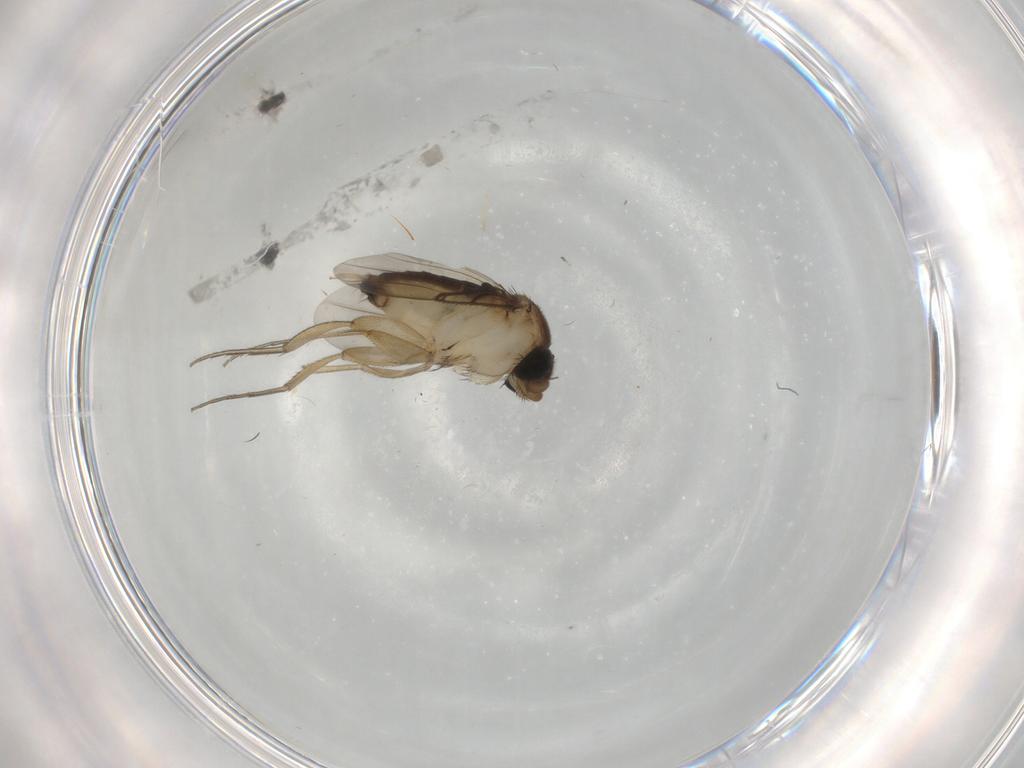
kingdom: Animalia
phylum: Arthropoda
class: Insecta
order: Diptera
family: Phoridae
